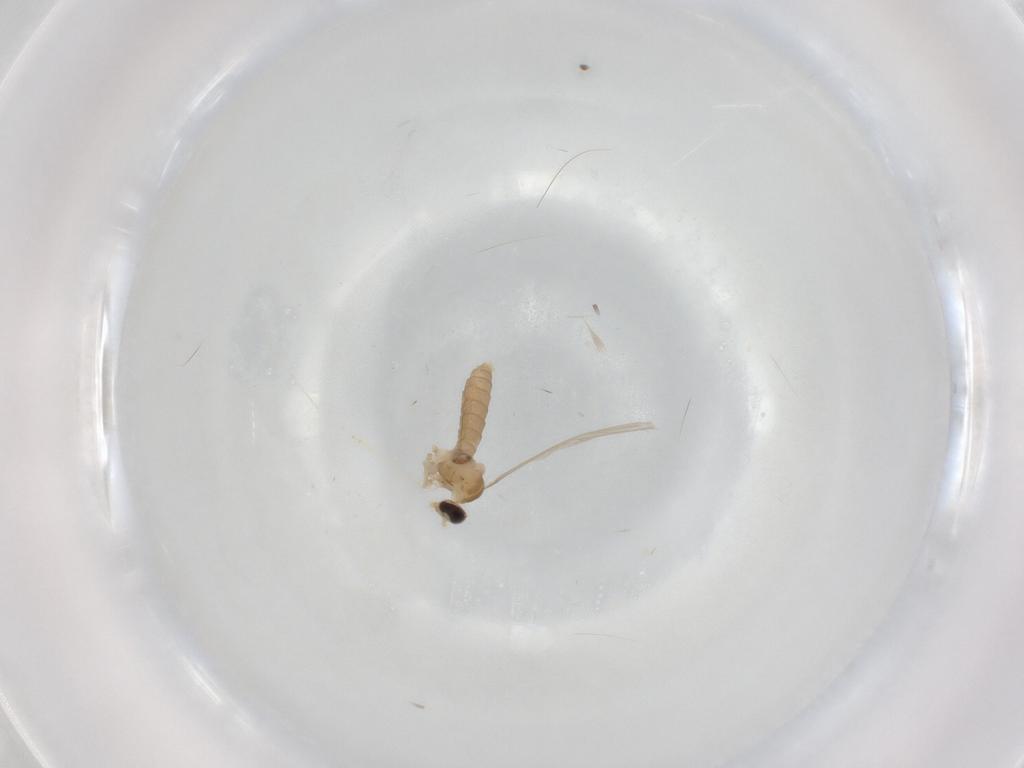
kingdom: Animalia
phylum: Arthropoda
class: Insecta
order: Diptera
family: Cecidomyiidae
